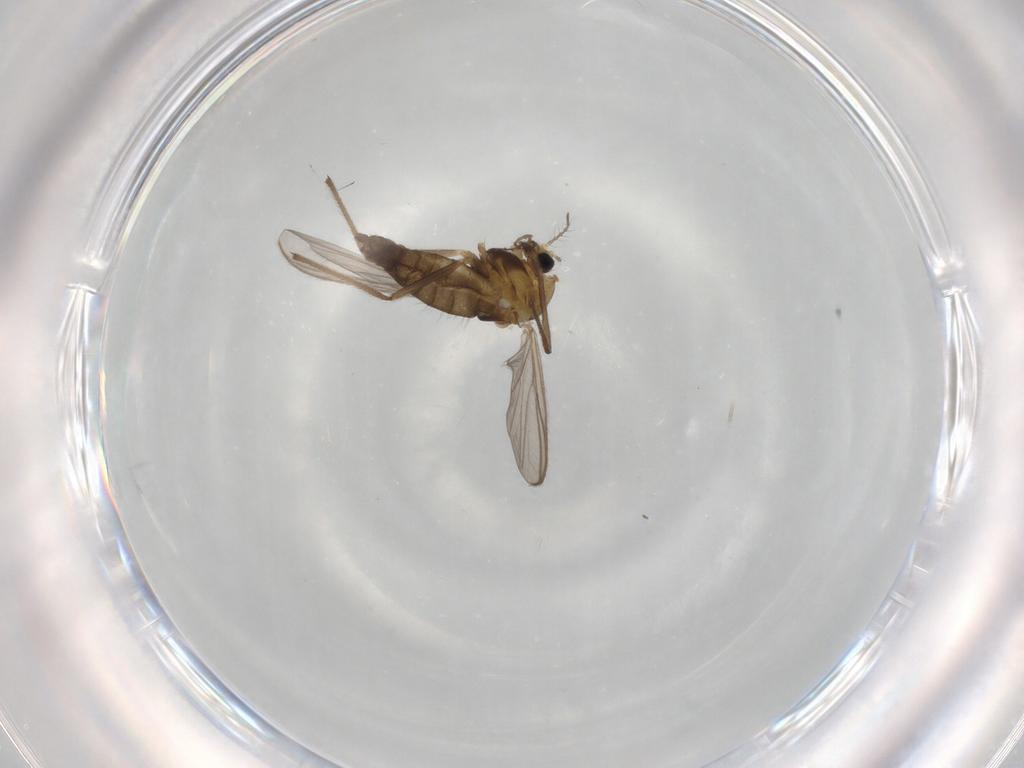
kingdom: Animalia
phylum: Arthropoda
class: Insecta
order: Diptera
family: Chironomidae
